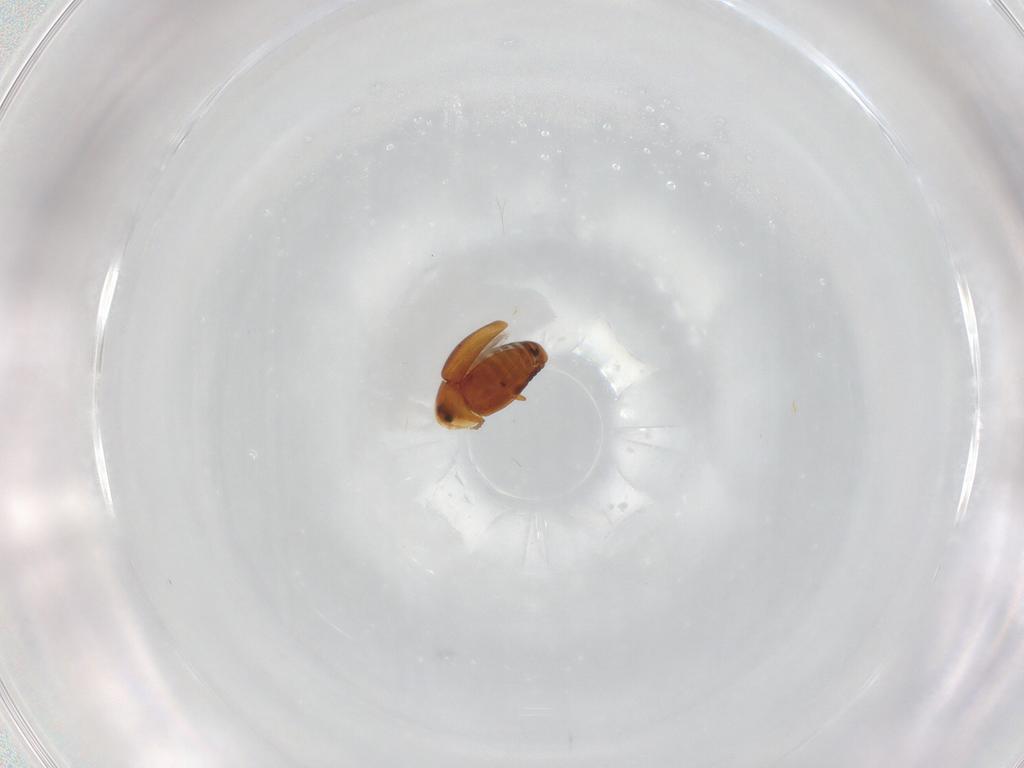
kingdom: Animalia
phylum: Arthropoda
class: Insecta
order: Coleoptera
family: Corylophidae
